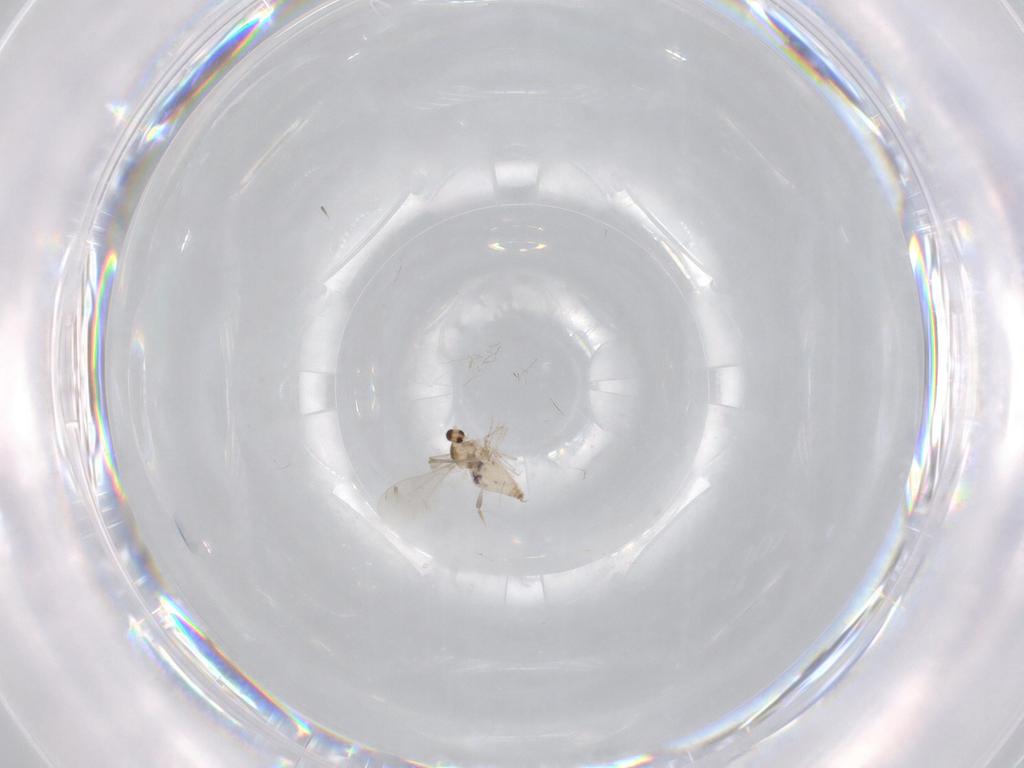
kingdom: Animalia
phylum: Arthropoda
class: Insecta
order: Diptera
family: Cecidomyiidae
